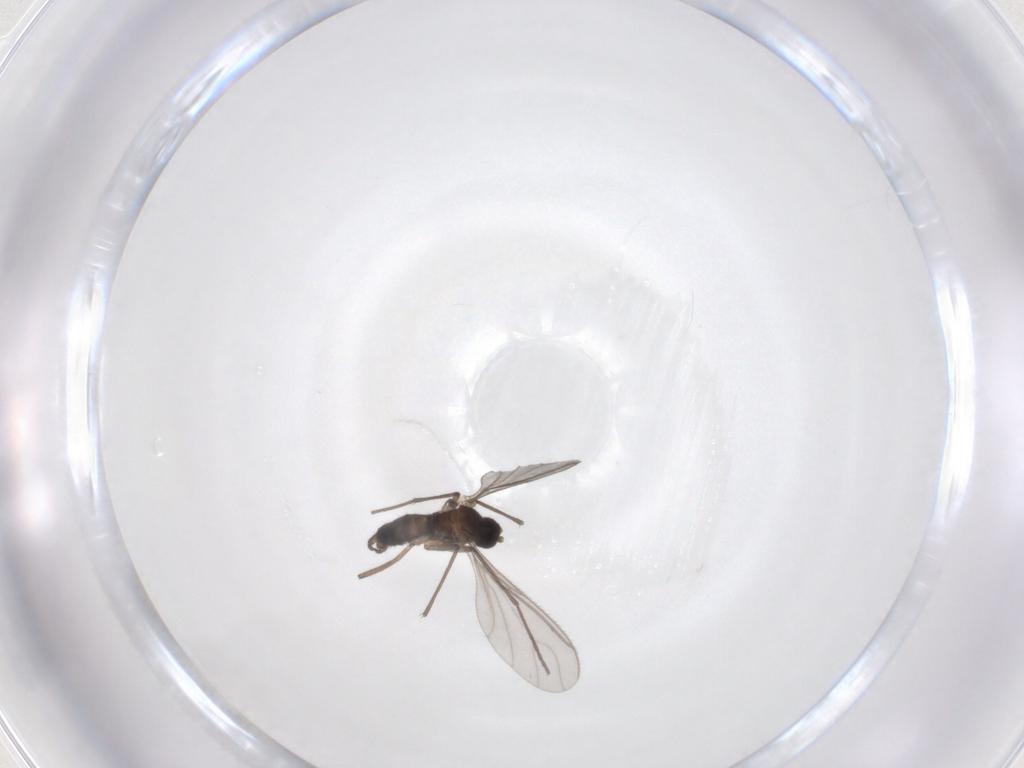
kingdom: Animalia
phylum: Arthropoda
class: Insecta
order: Diptera
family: Sciaridae
